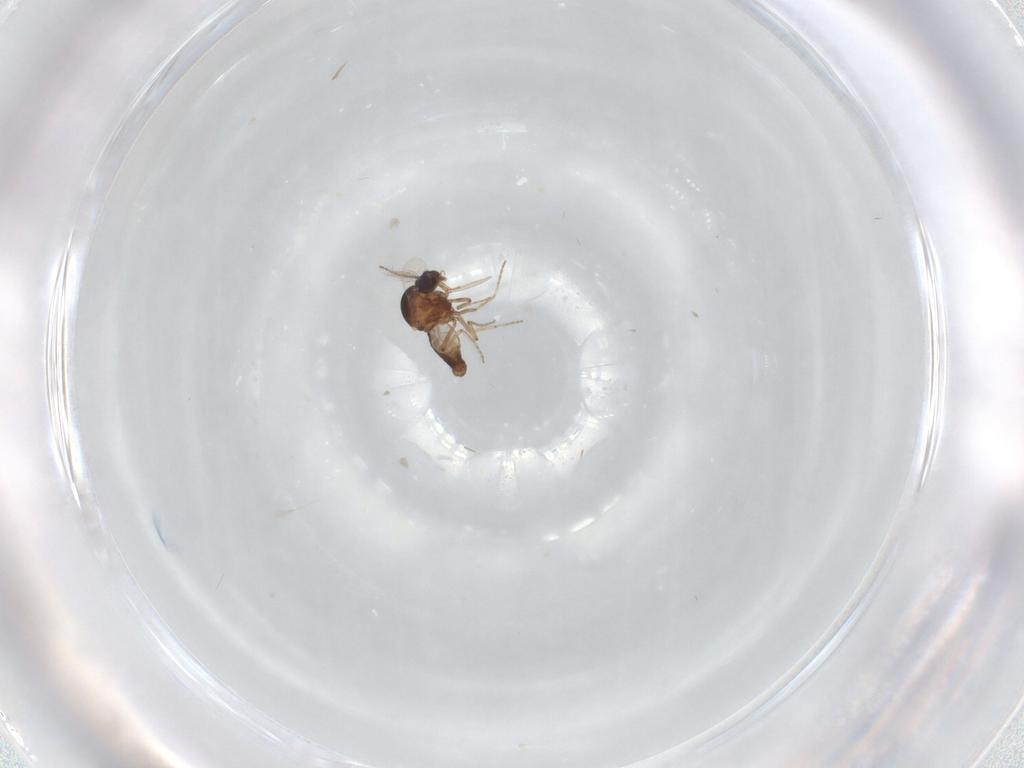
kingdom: Animalia
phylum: Arthropoda
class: Insecta
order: Diptera
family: Ceratopogonidae
